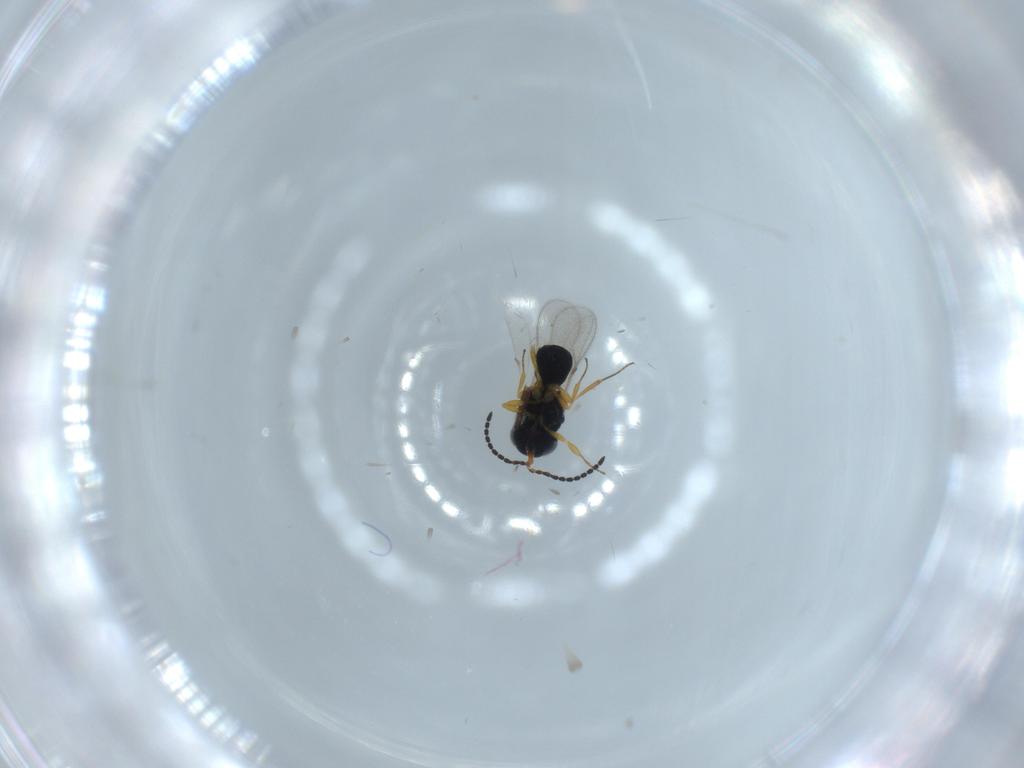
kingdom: Animalia
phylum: Arthropoda
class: Insecta
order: Hymenoptera
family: Scelionidae
